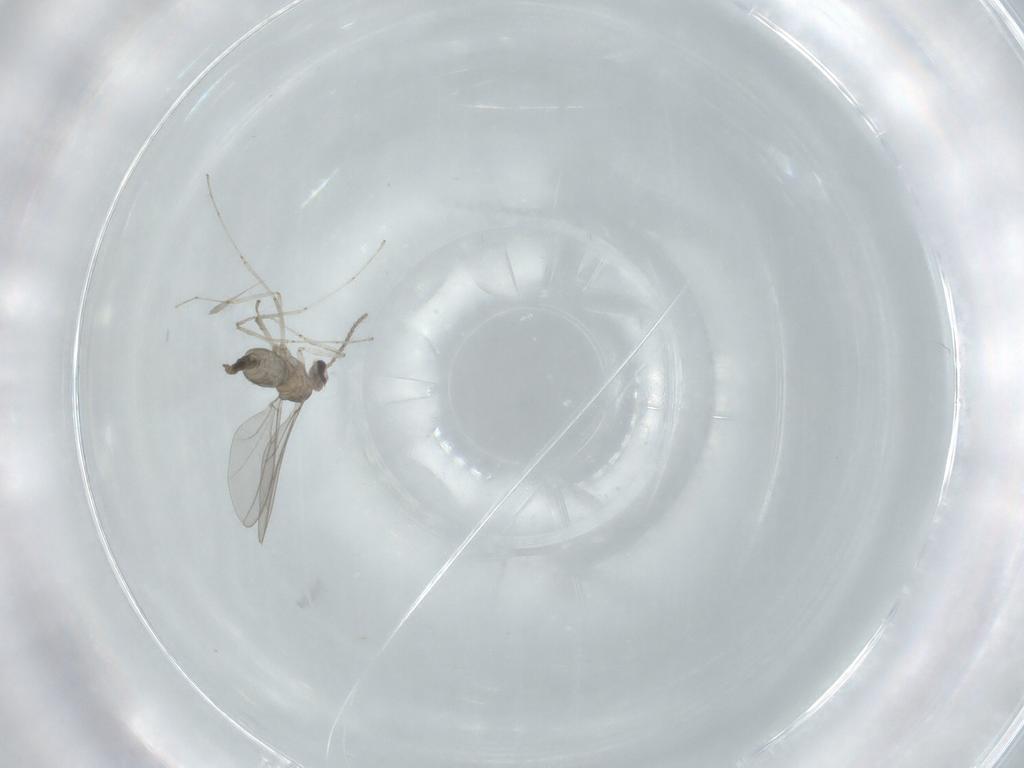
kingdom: Animalia
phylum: Arthropoda
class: Insecta
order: Diptera
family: Cecidomyiidae
